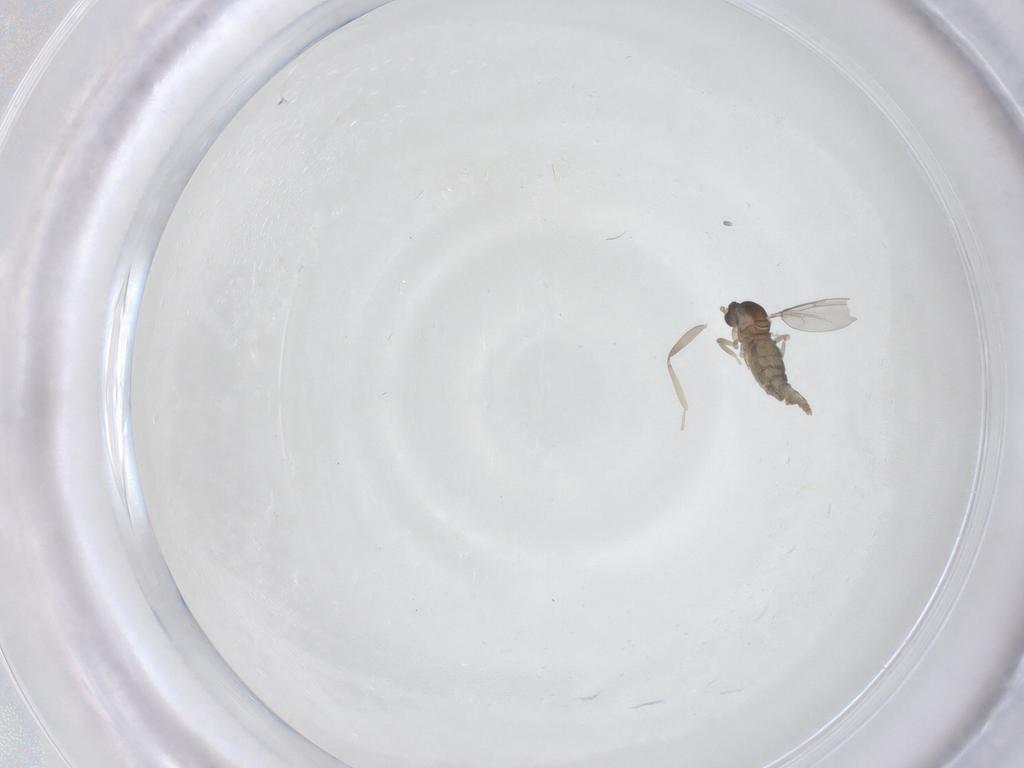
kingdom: Animalia
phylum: Arthropoda
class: Insecta
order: Diptera
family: Cecidomyiidae
